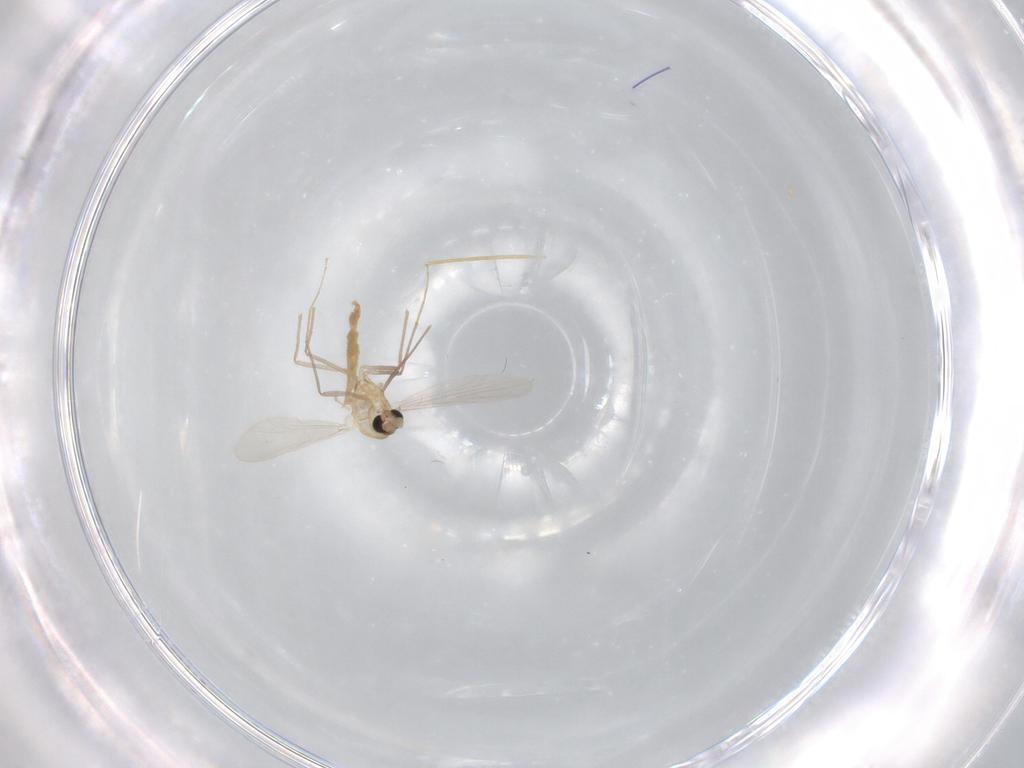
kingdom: Animalia
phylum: Arthropoda
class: Insecta
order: Diptera
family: Chironomidae
